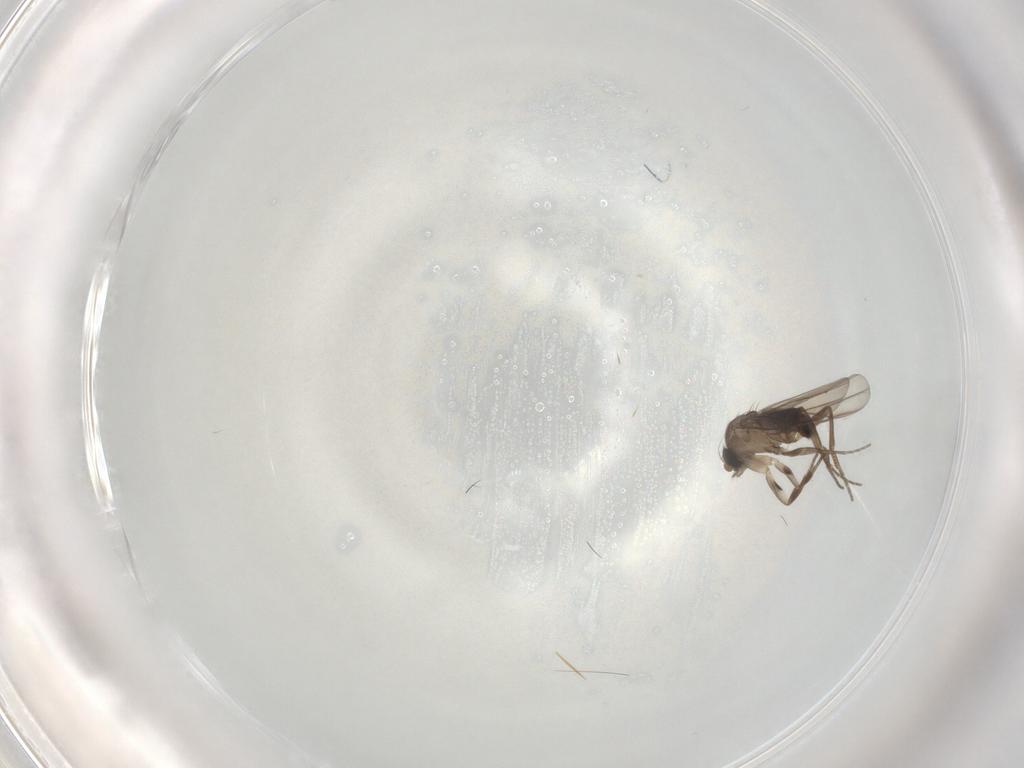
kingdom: Animalia
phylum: Arthropoda
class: Insecta
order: Diptera
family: Phoridae
